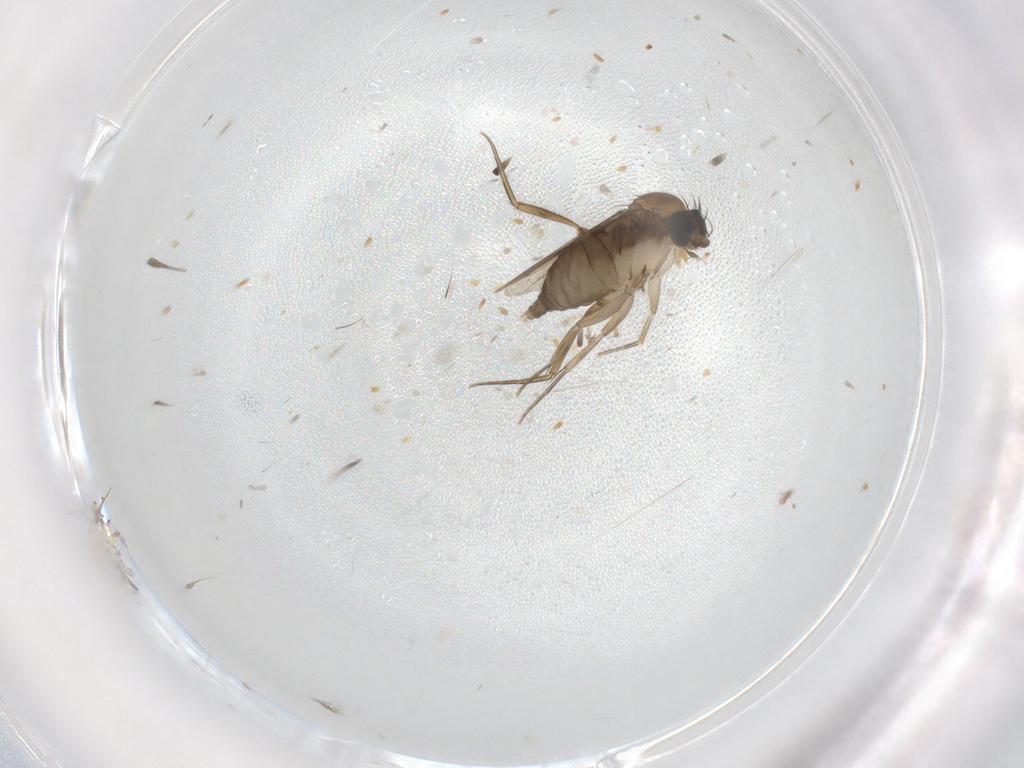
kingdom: Animalia
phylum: Arthropoda
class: Insecta
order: Diptera
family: Phoridae
